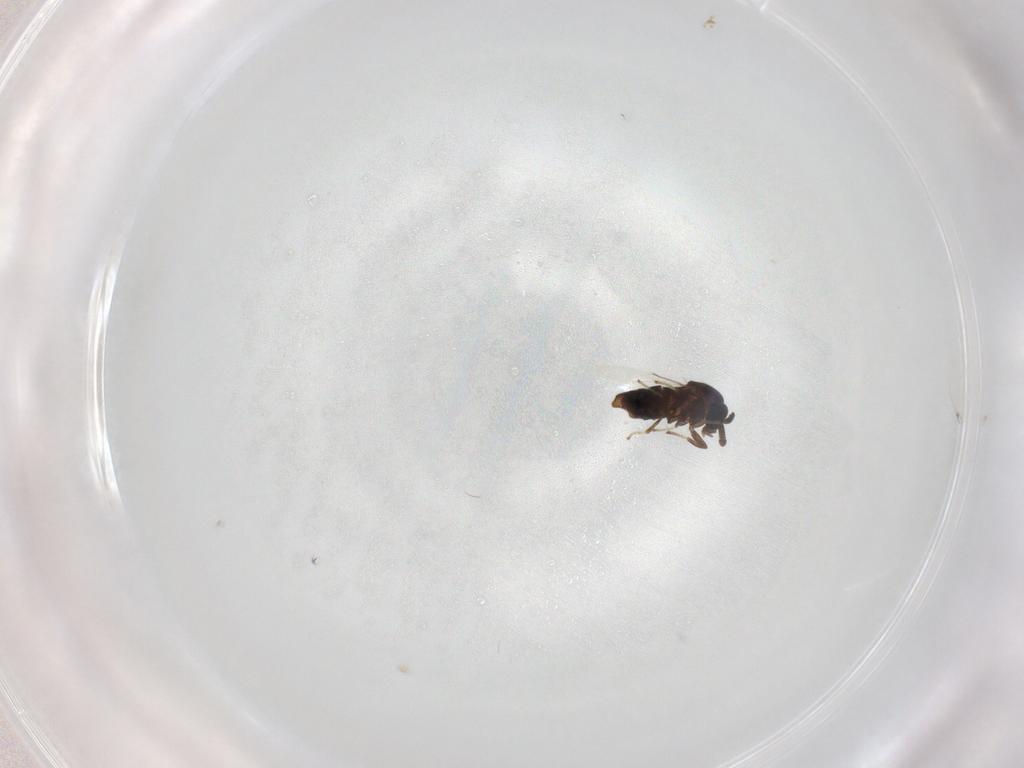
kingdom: Animalia
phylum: Arthropoda
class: Insecta
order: Diptera
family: Scatopsidae
